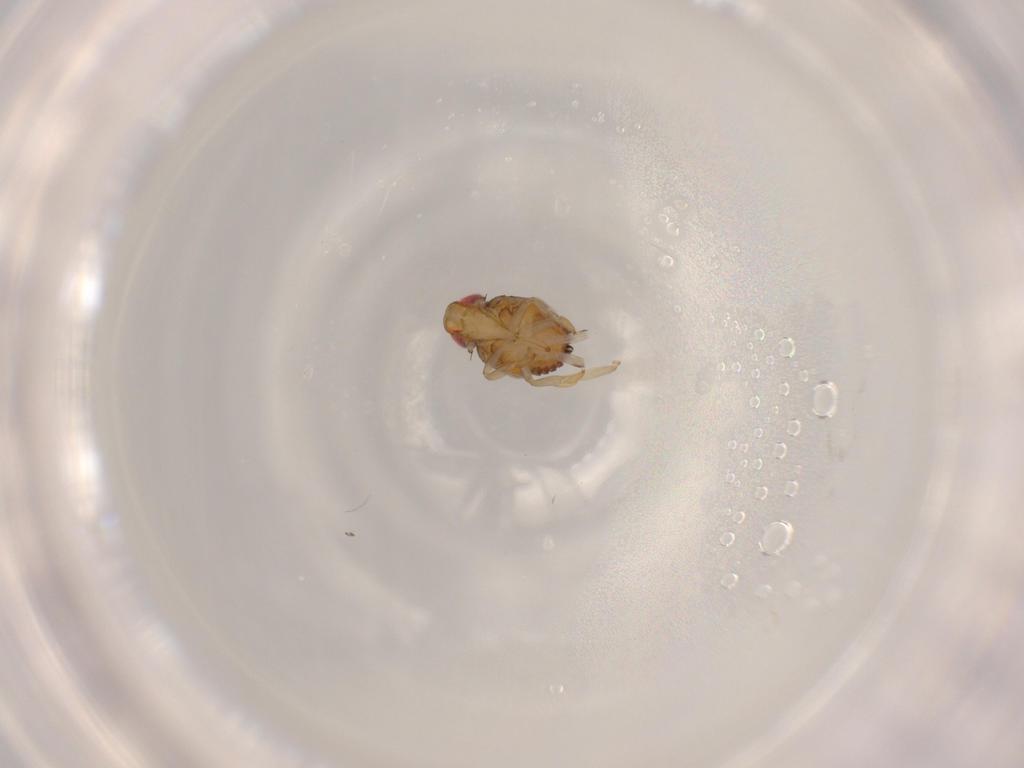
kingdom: Animalia
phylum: Arthropoda
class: Insecta
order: Hemiptera
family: Issidae
